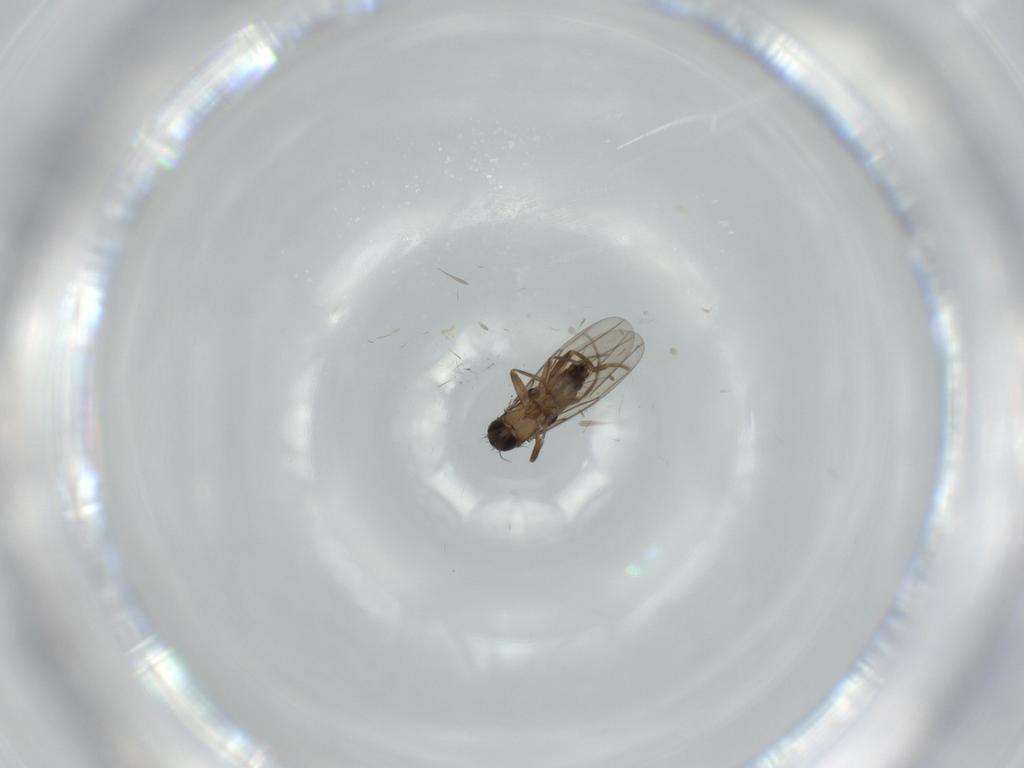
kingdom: Animalia
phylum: Arthropoda
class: Insecta
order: Diptera
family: Phoridae
